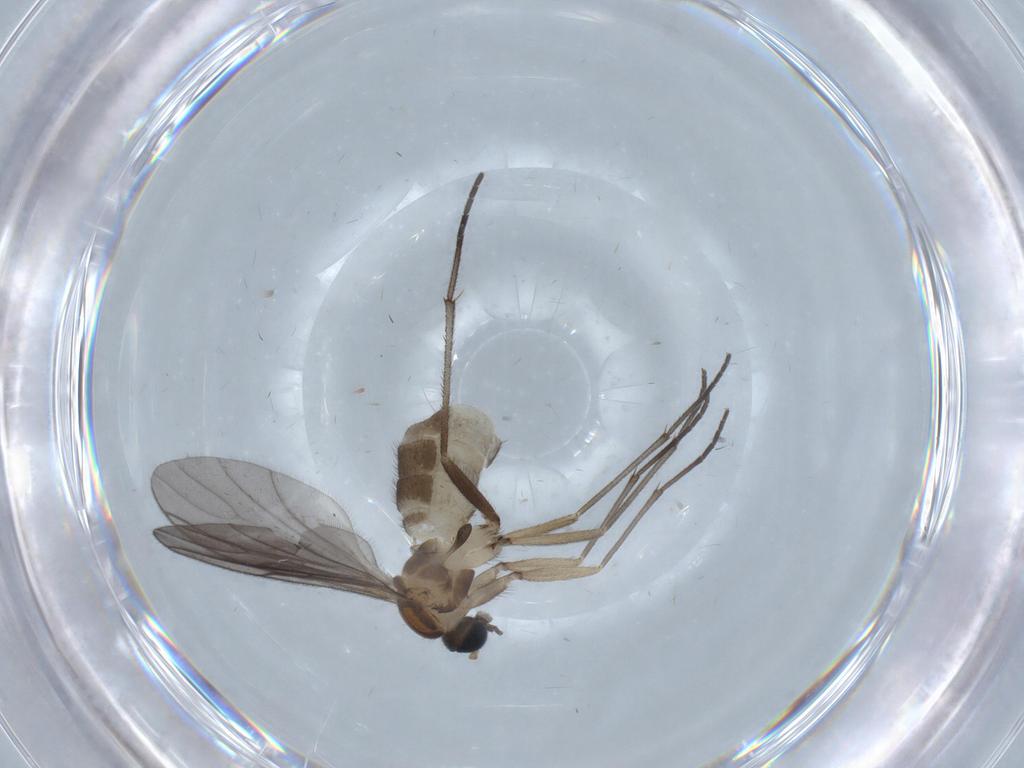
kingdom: Animalia
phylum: Arthropoda
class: Insecta
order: Diptera
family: Sciaridae
